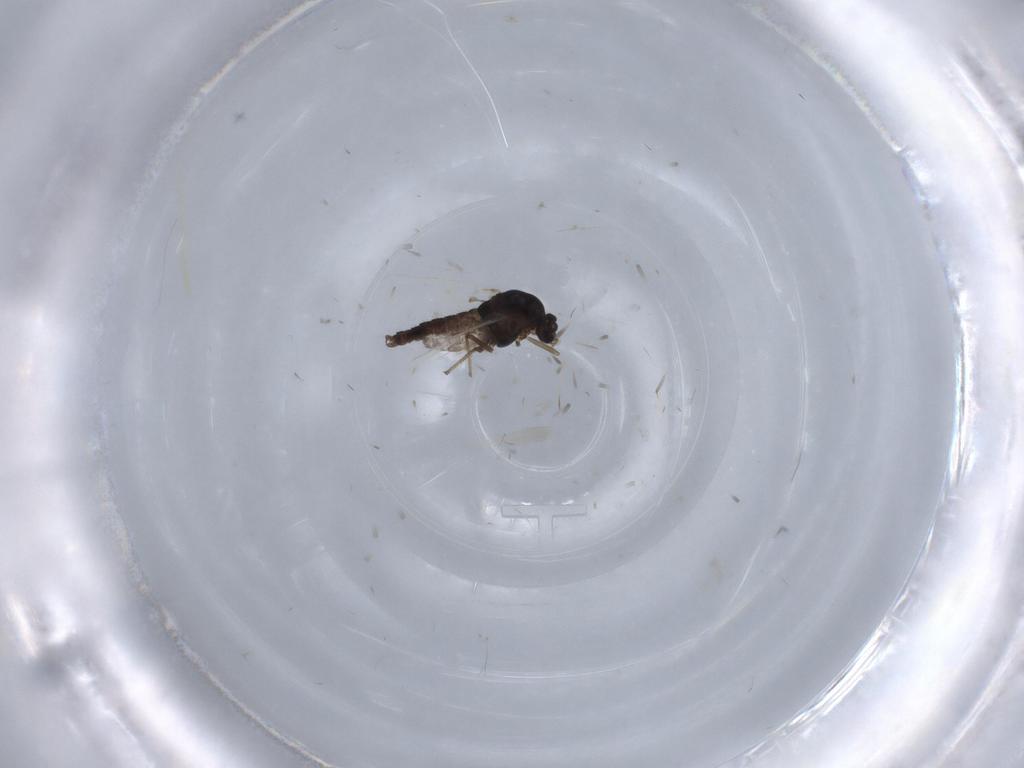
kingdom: Animalia
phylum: Arthropoda
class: Insecta
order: Diptera
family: Chironomidae
